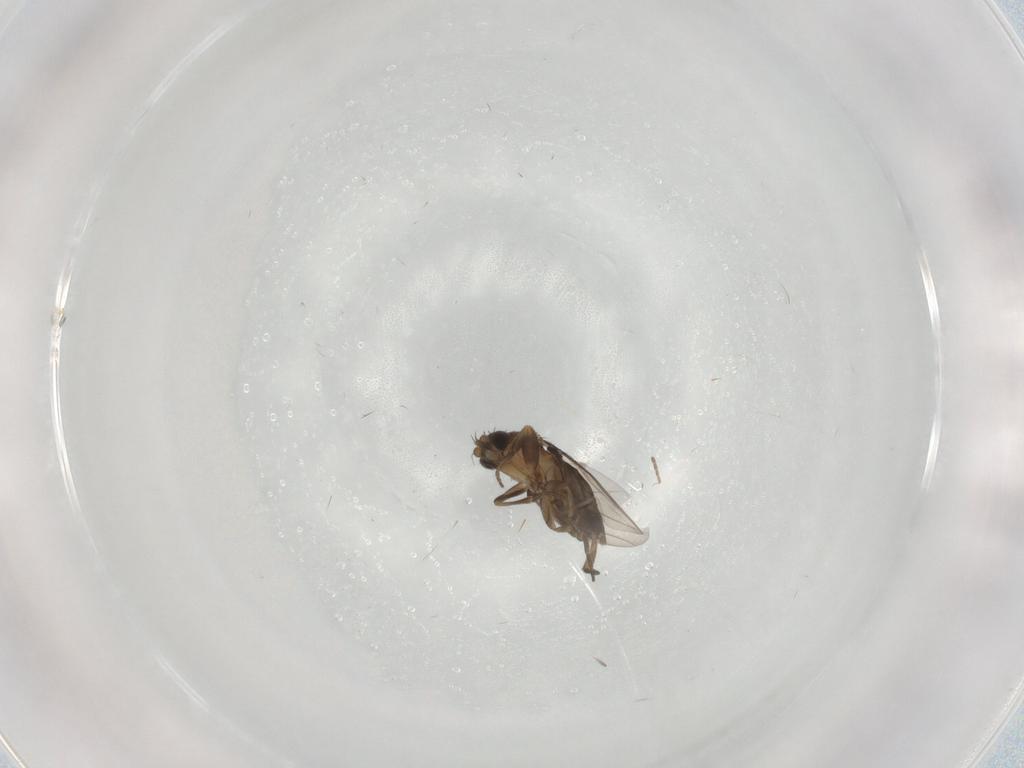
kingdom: Animalia
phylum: Arthropoda
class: Insecta
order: Diptera
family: Phoridae
